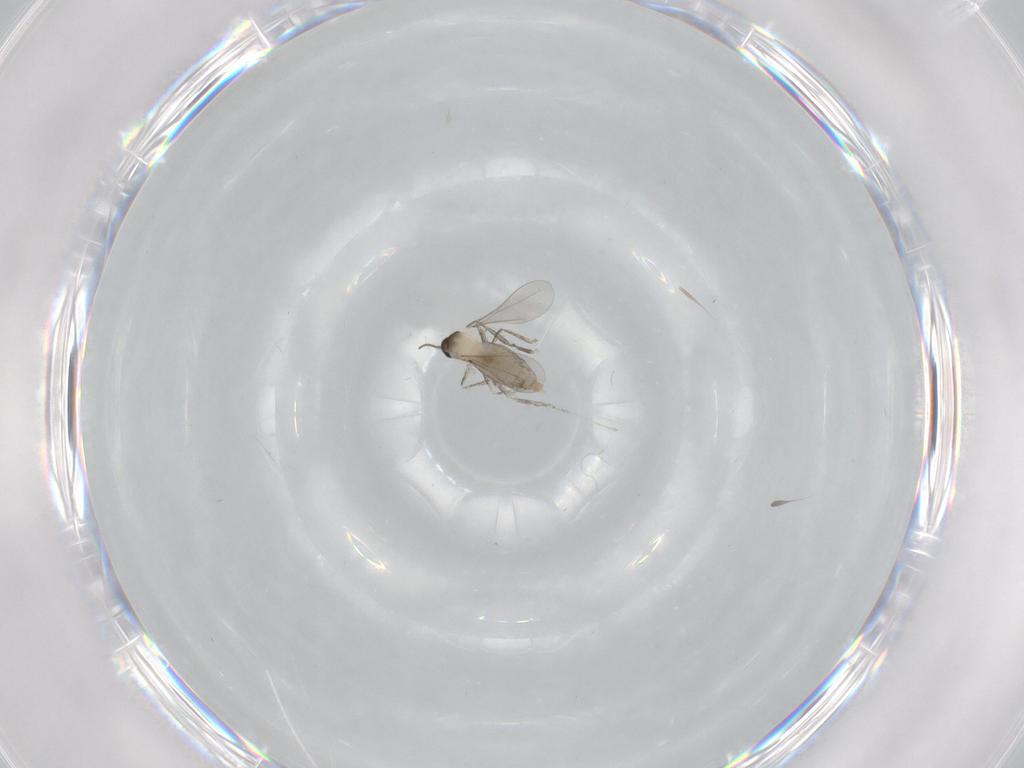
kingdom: Animalia
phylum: Arthropoda
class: Insecta
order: Diptera
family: Cecidomyiidae
